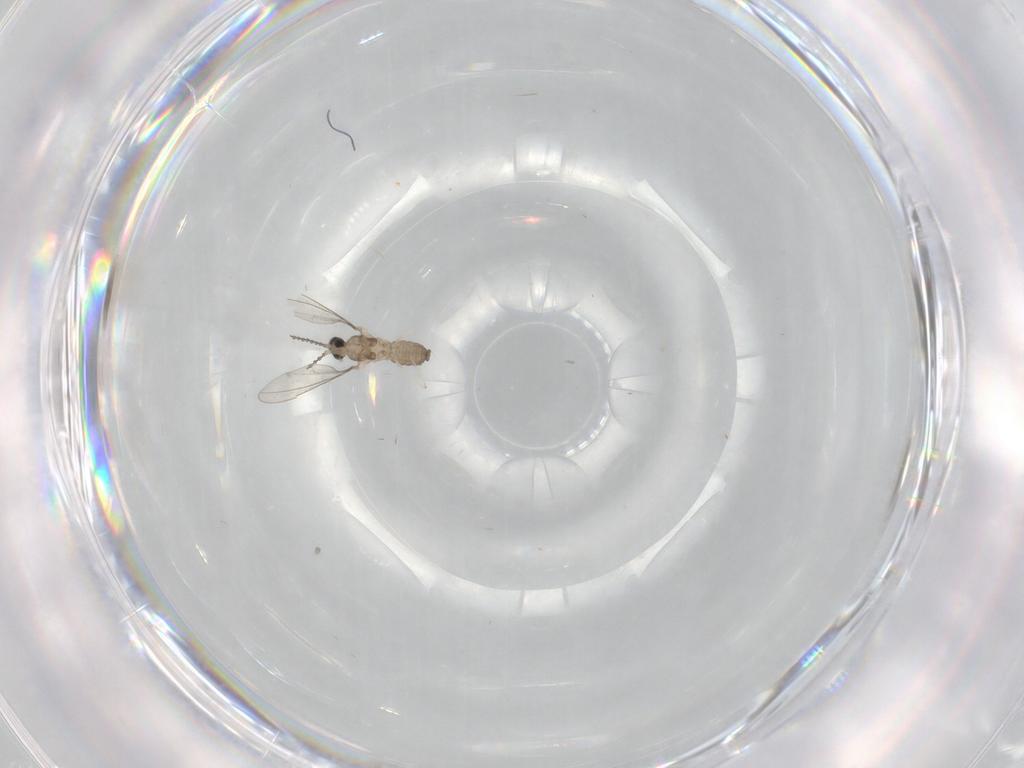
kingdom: Animalia
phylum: Arthropoda
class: Insecta
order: Diptera
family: Cecidomyiidae
